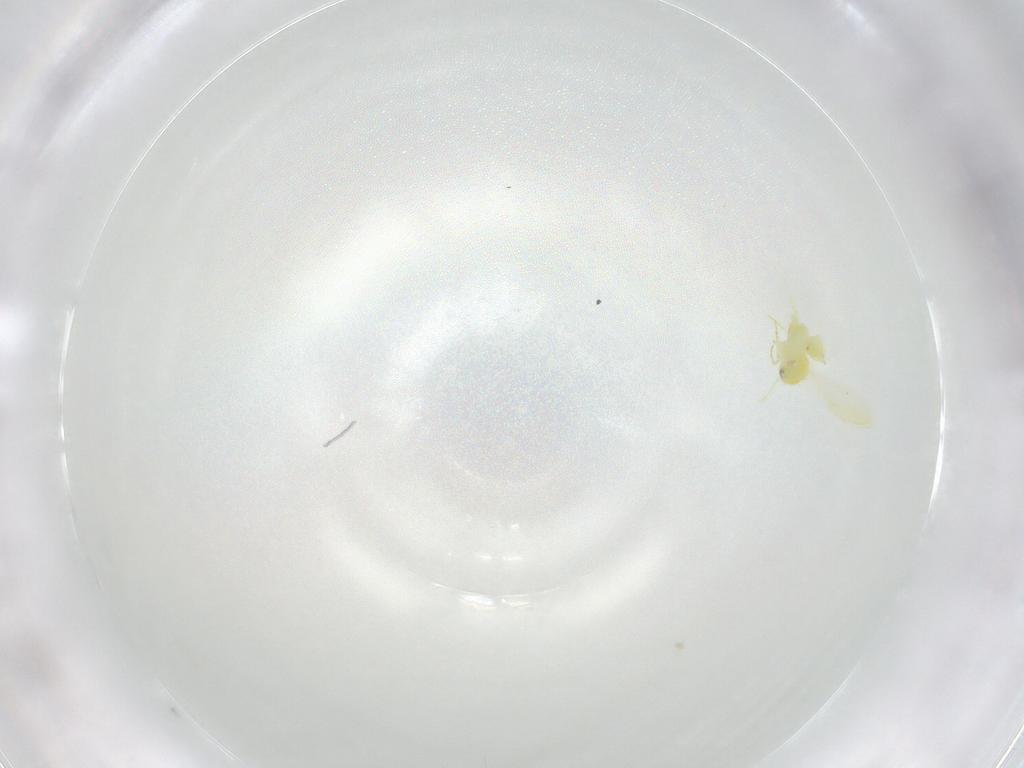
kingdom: Animalia
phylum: Arthropoda
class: Insecta
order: Hemiptera
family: Aleyrodidae
